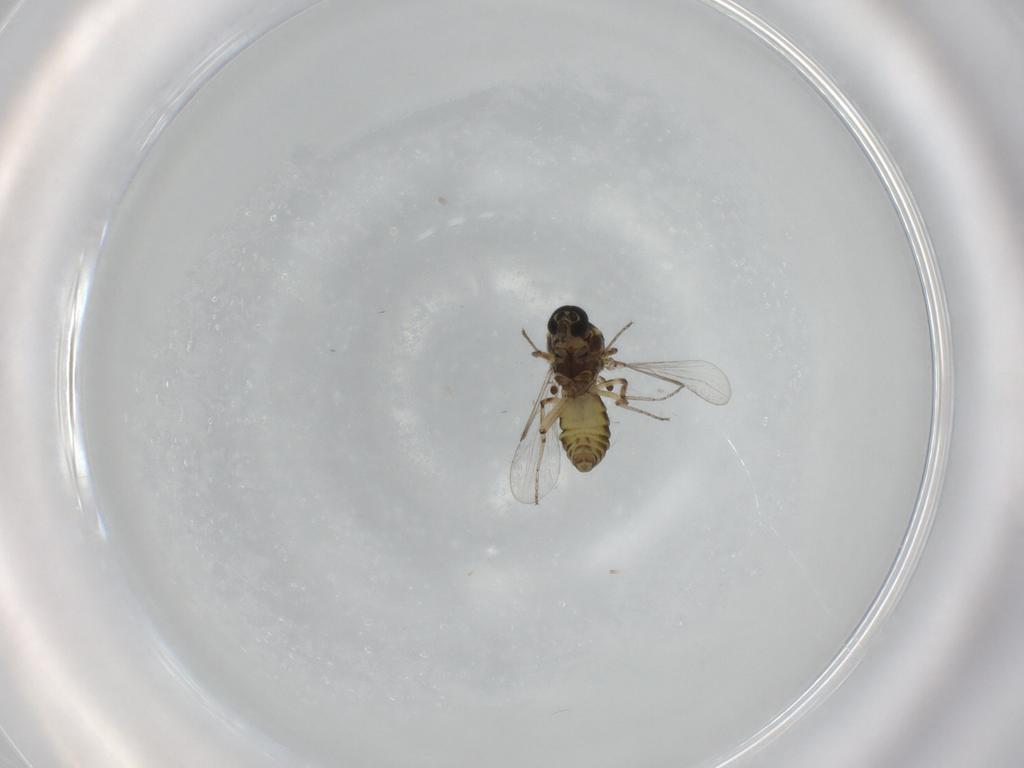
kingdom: Animalia
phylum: Arthropoda
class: Insecta
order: Diptera
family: Ceratopogonidae
